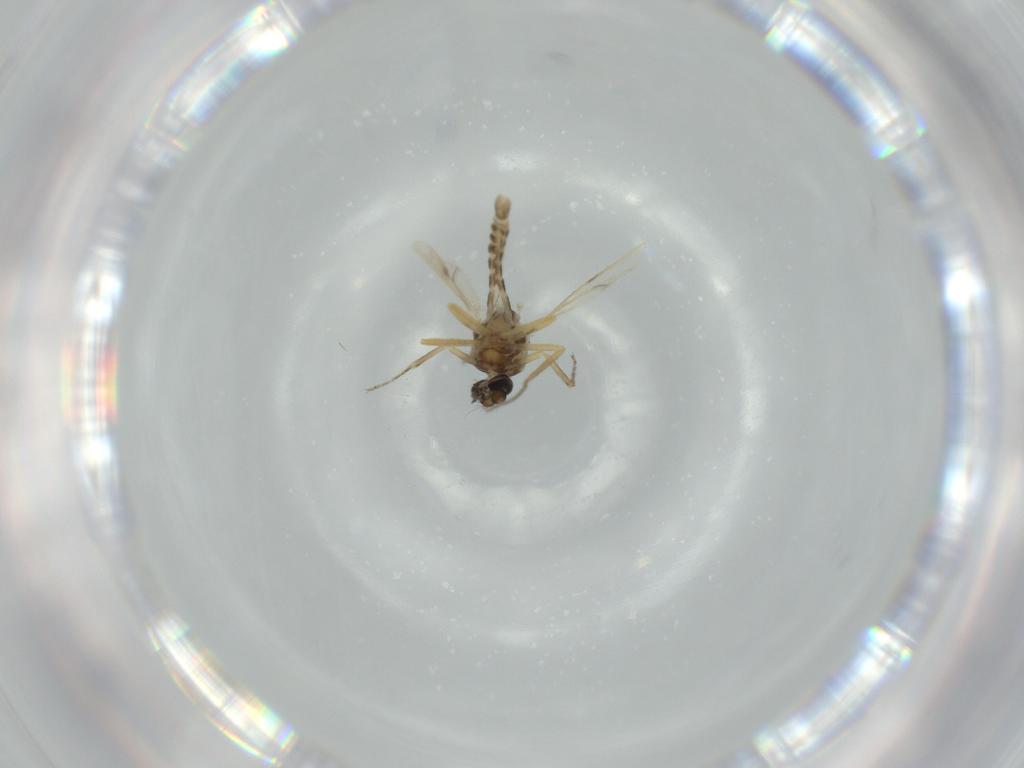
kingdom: Animalia
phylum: Arthropoda
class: Insecta
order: Diptera
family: Ceratopogonidae
